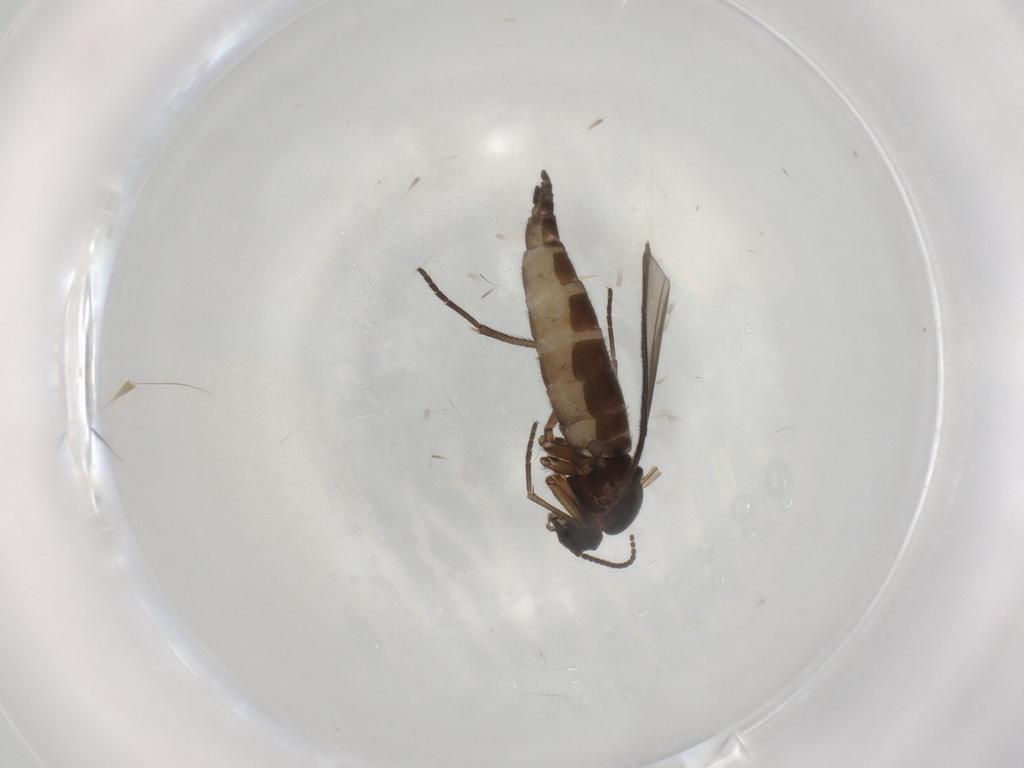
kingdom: Animalia
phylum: Arthropoda
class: Insecta
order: Diptera
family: Sciaridae
